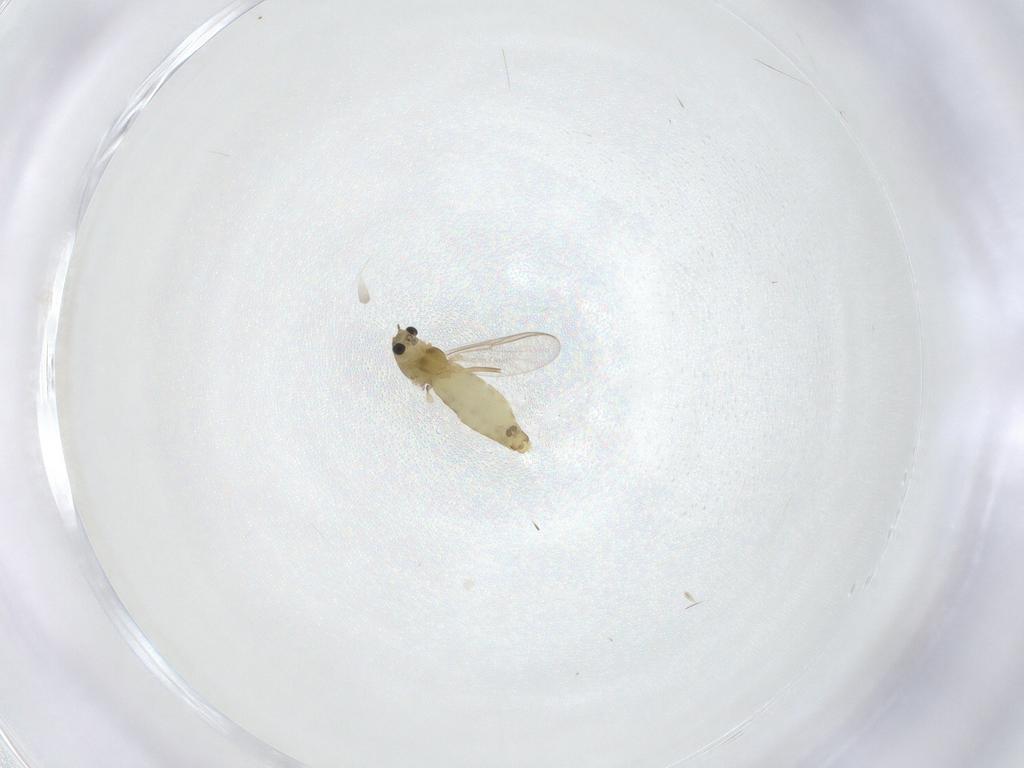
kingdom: Animalia
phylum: Arthropoda
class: Insecta
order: Diptera
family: Chironomidae
